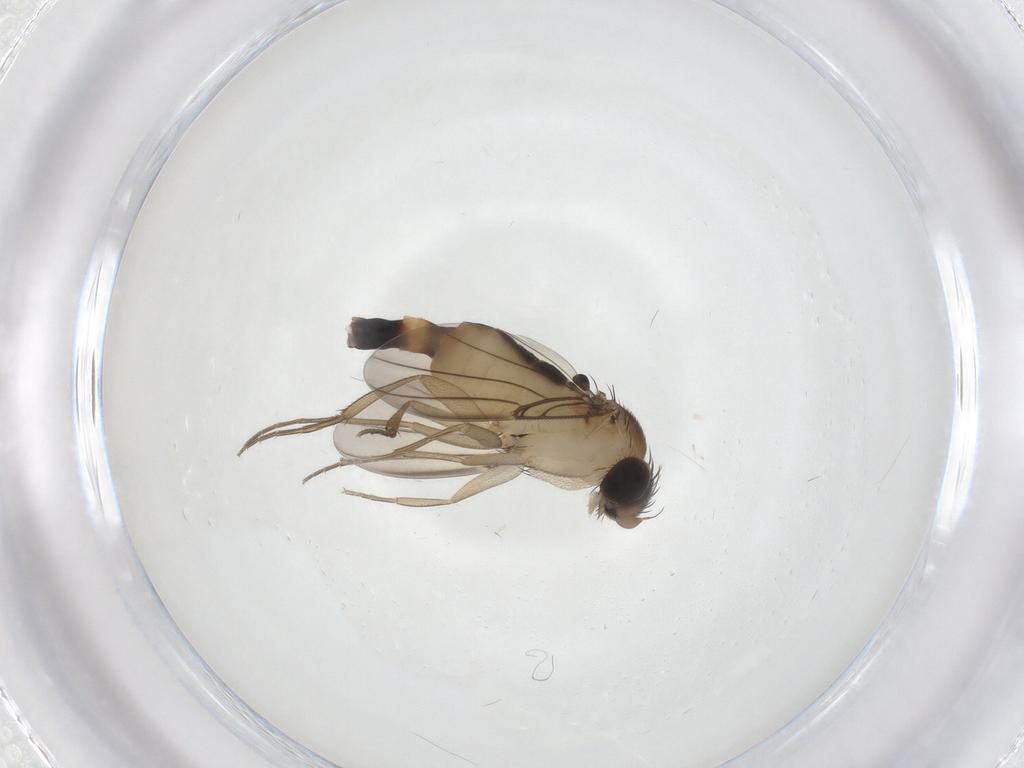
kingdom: Animalia
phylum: Arthropoda
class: Insecta
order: Diptera
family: Phoridae
